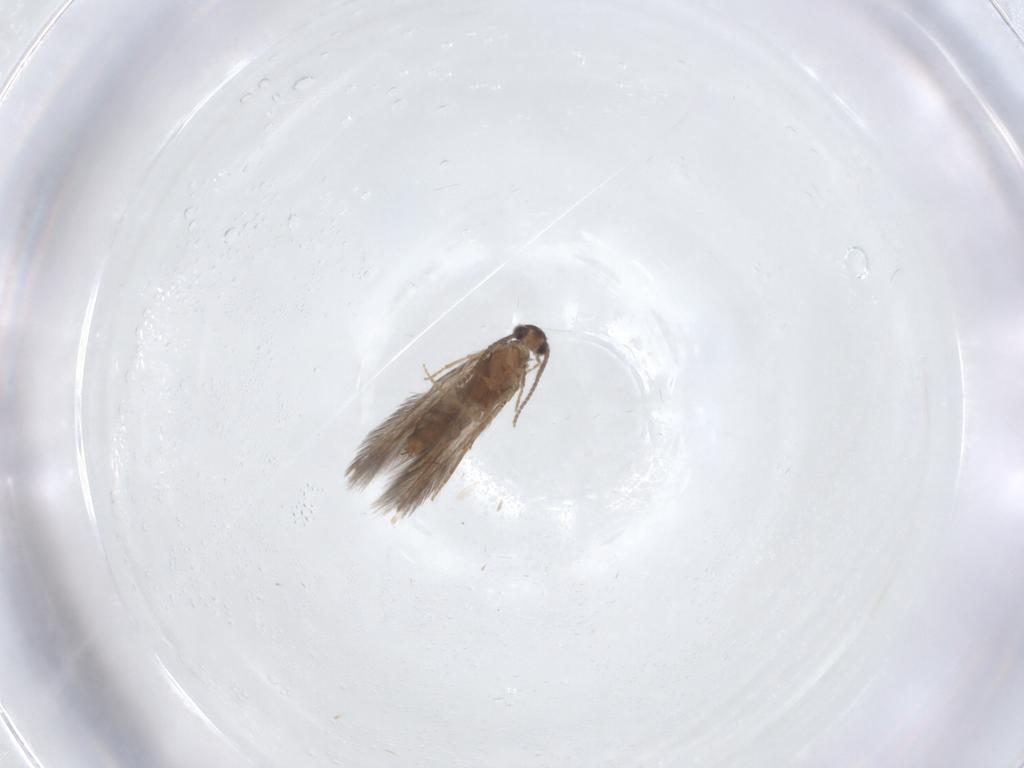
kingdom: Animalia
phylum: Arthropoda
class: Insecta
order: Trichoptera
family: Hydroptilidae
